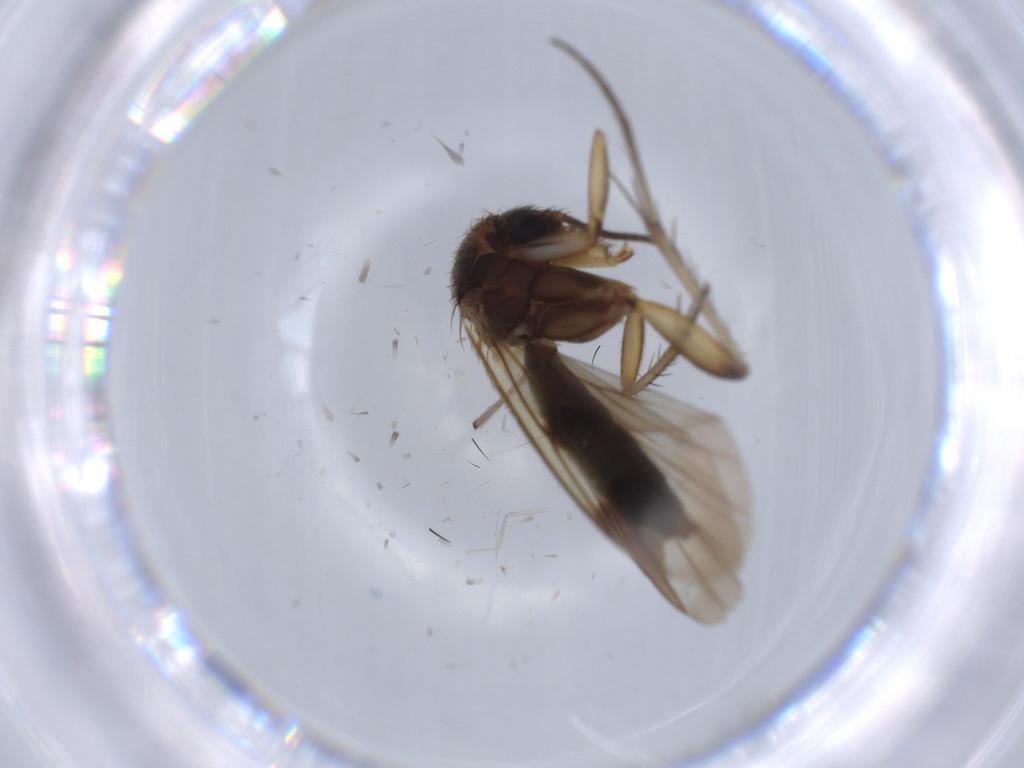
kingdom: Animalia
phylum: Arthropoda
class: Insecta
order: Diptera
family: Mycetophilidae
